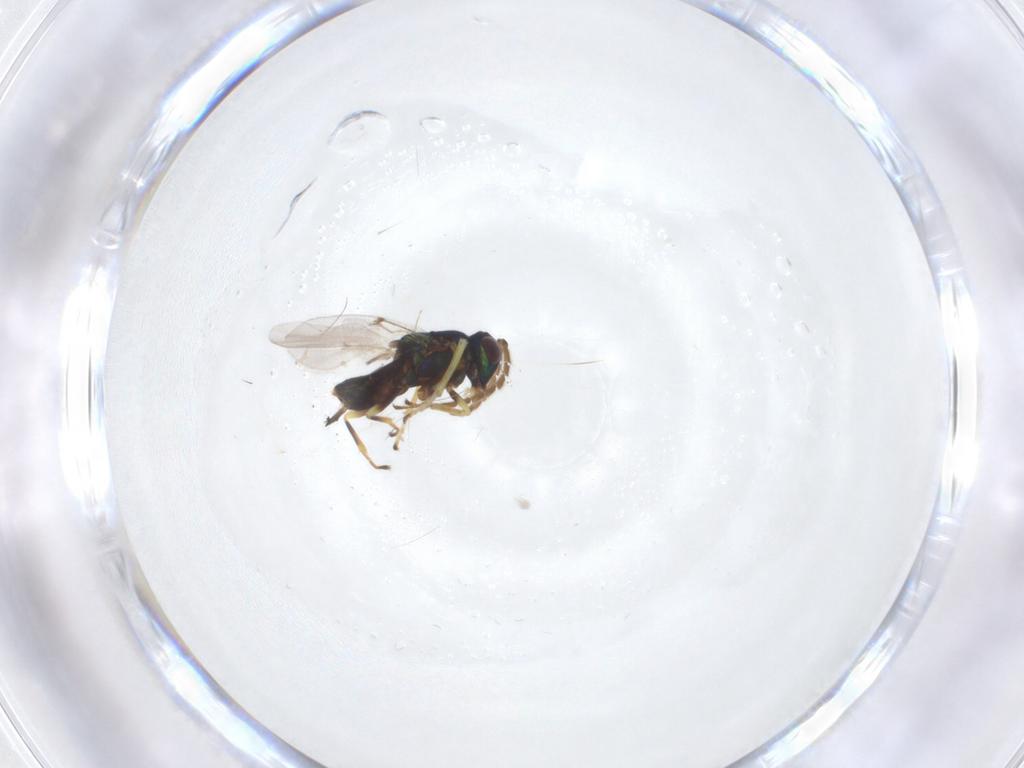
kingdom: Animalia
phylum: Arthropoda
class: Insecta
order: Hymenoptera
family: Encyrtidae
